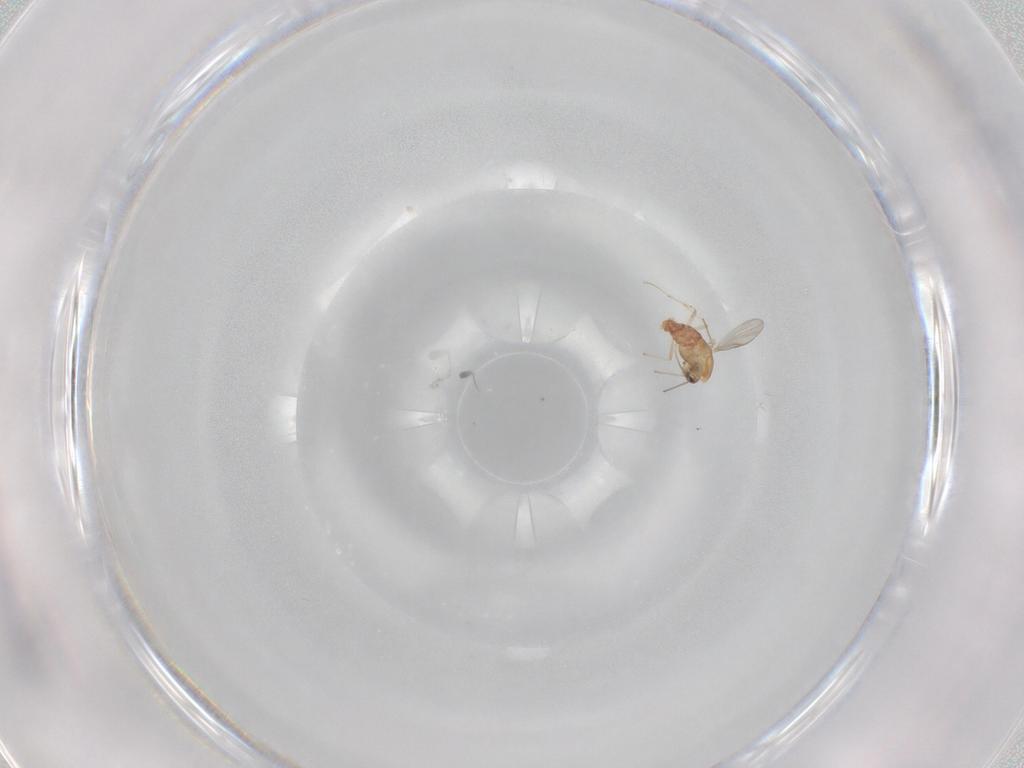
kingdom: Animalia
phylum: Arthropoda
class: Insecta
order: Diptera
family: Chironomidae
